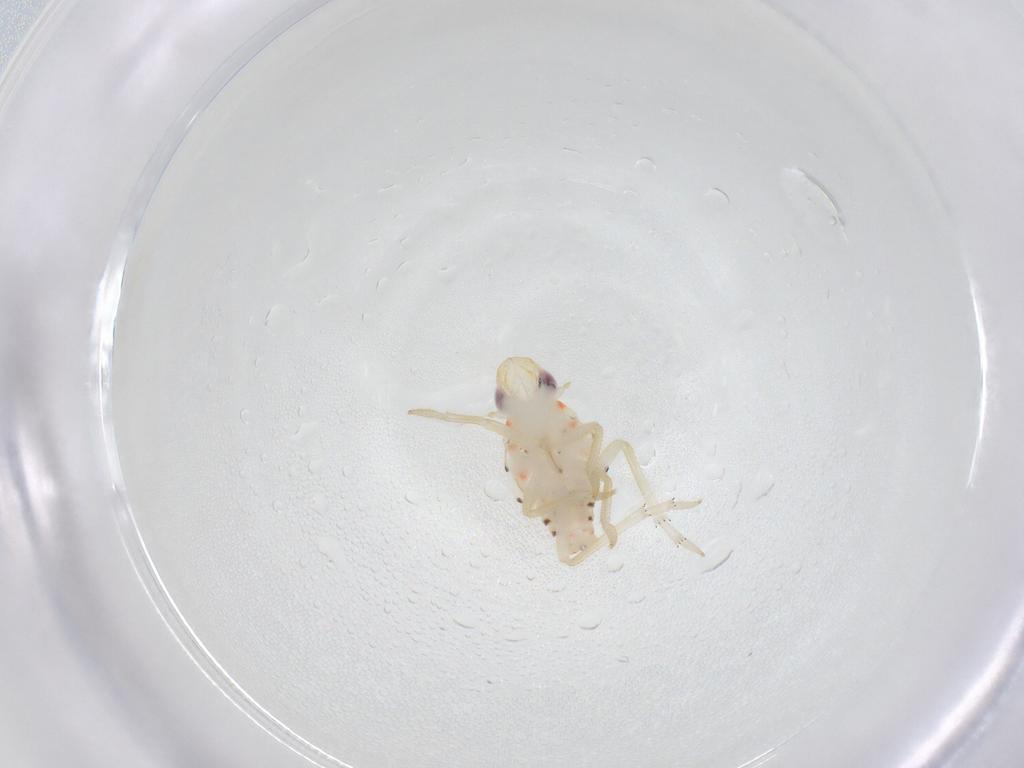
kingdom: Animalia
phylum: Arthropoda
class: Insecta
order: Hemiptera
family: Tropiduchidae
